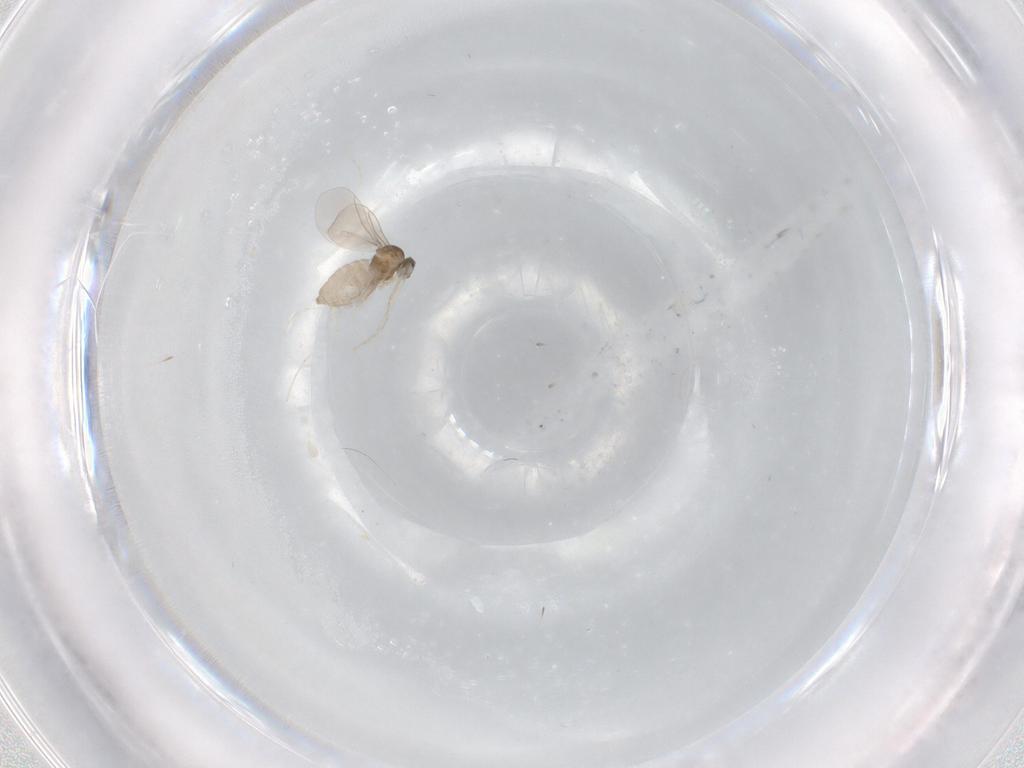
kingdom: Animalia
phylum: Arthropoda
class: Insecta
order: Diptera
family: Cecidomyiidae
